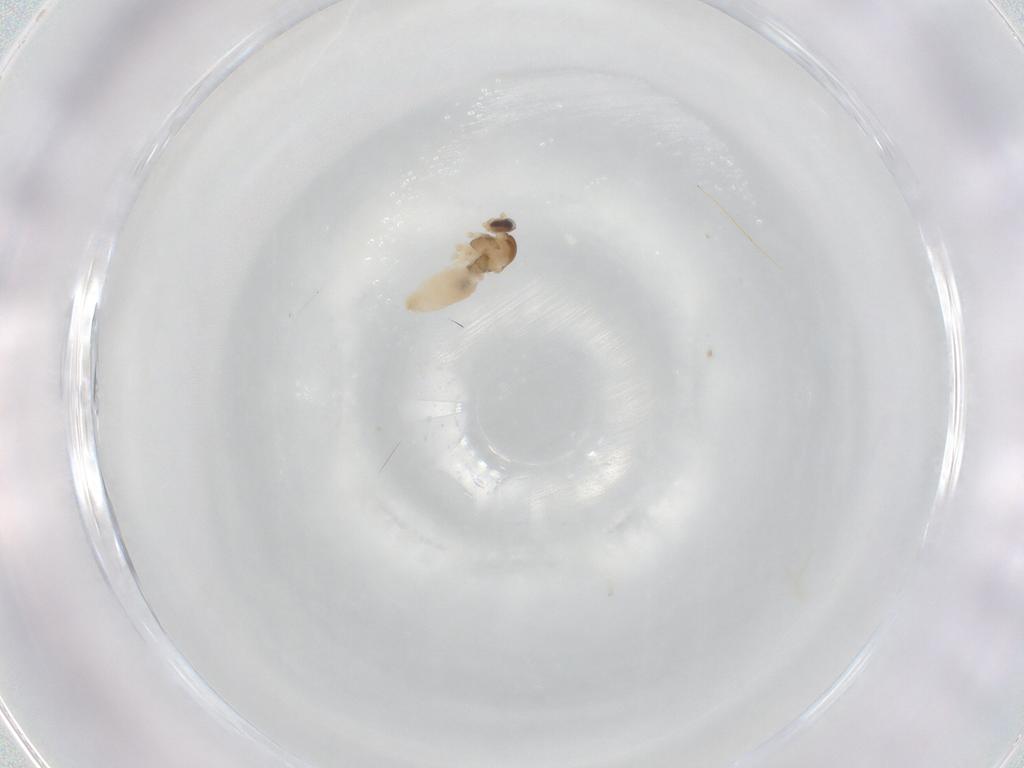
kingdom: Animalia
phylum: Arthropoda
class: Insecta
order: Diptera
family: Cecidomyiidae
